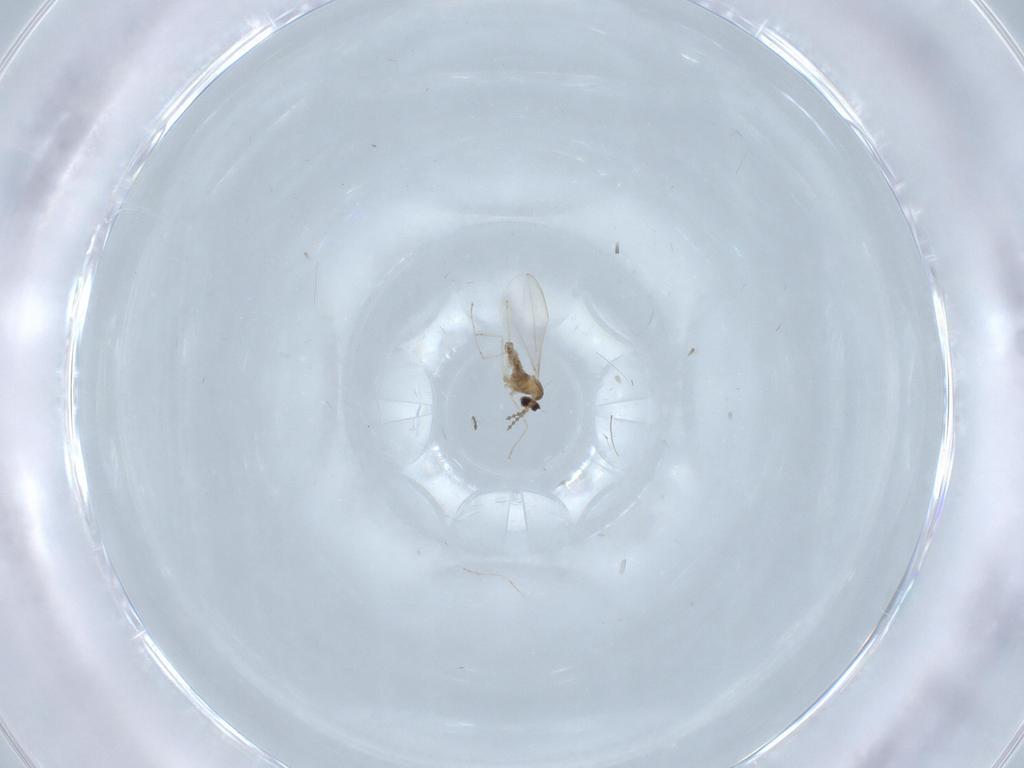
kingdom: Animalia
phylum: Arthropoda
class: Insecta
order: Diptera
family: Cecidomyiidae
